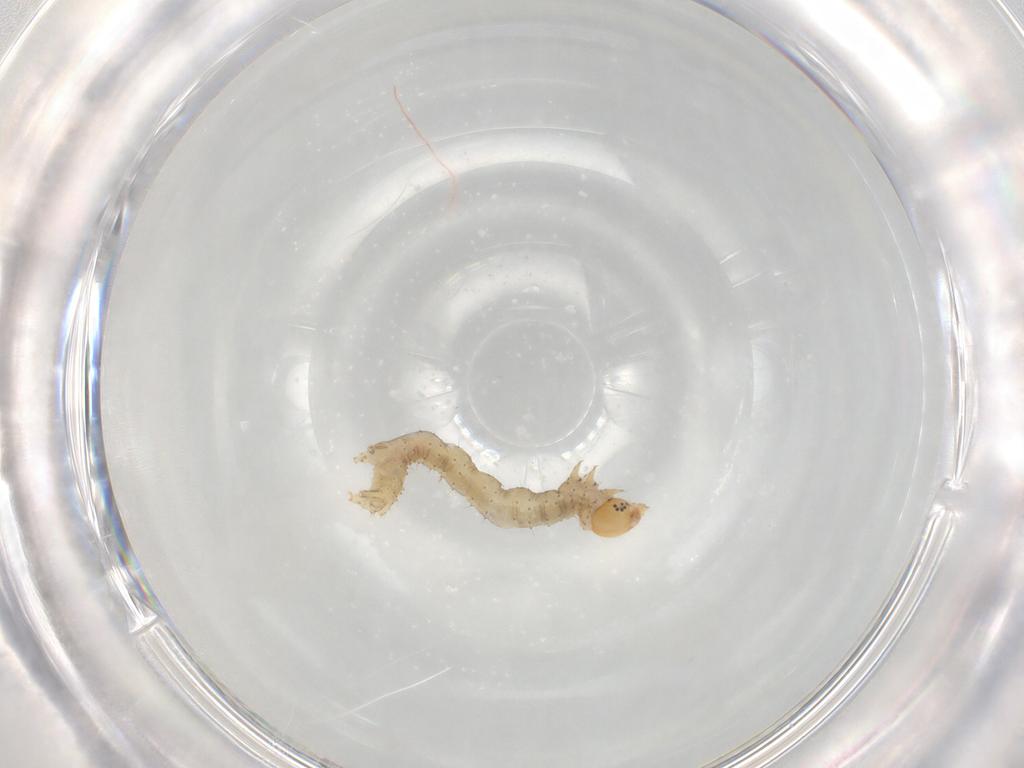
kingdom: Animalia
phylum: Arthropoda
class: Insecta
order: Lepidoptera
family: Geometridae
